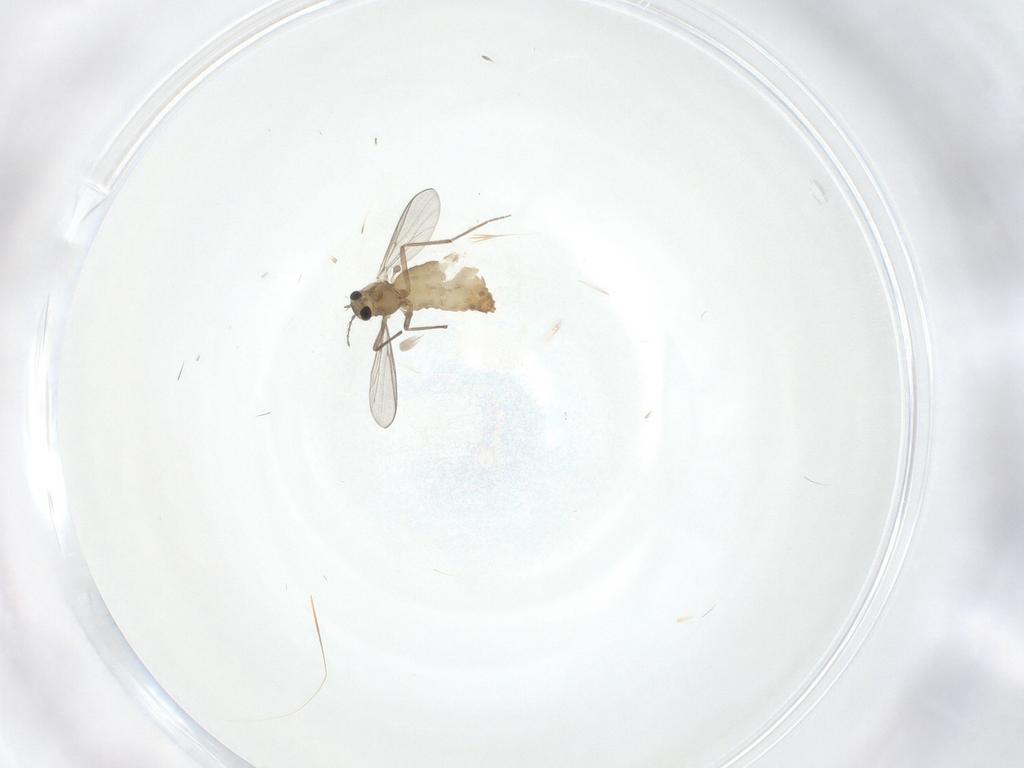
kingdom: Animalia
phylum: Arthropoda
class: Insecta
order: Diptera
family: Chironomidae
